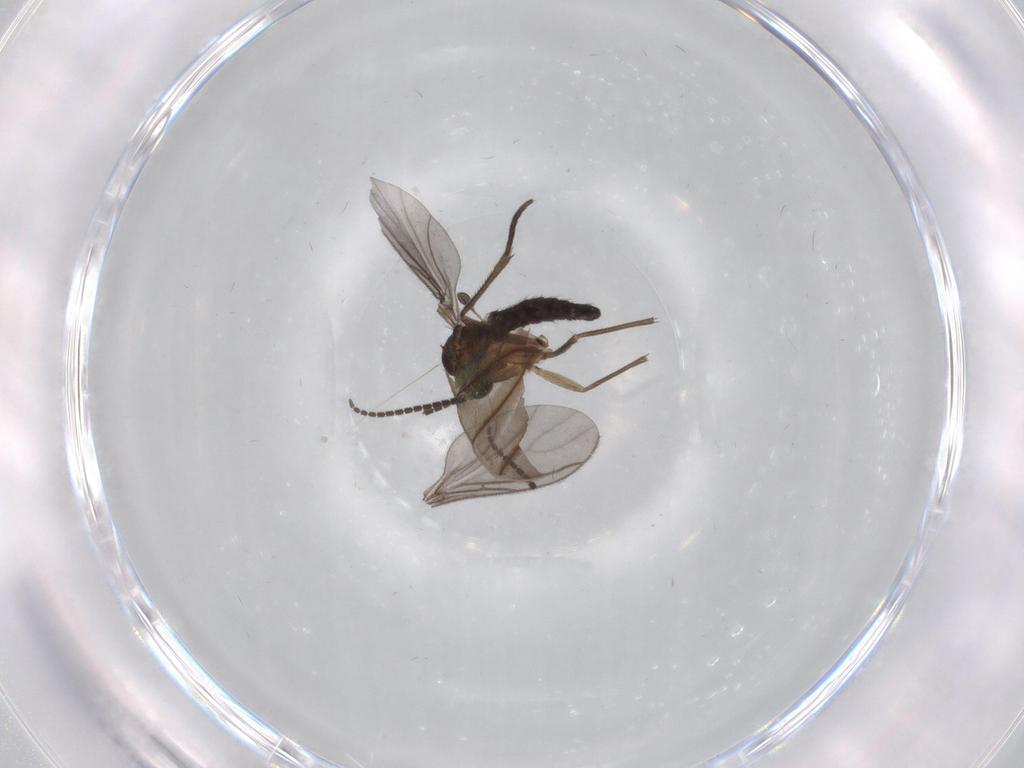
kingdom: Animalia
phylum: Arthropoda
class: Insecta
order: Diptera
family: Sciaridae
